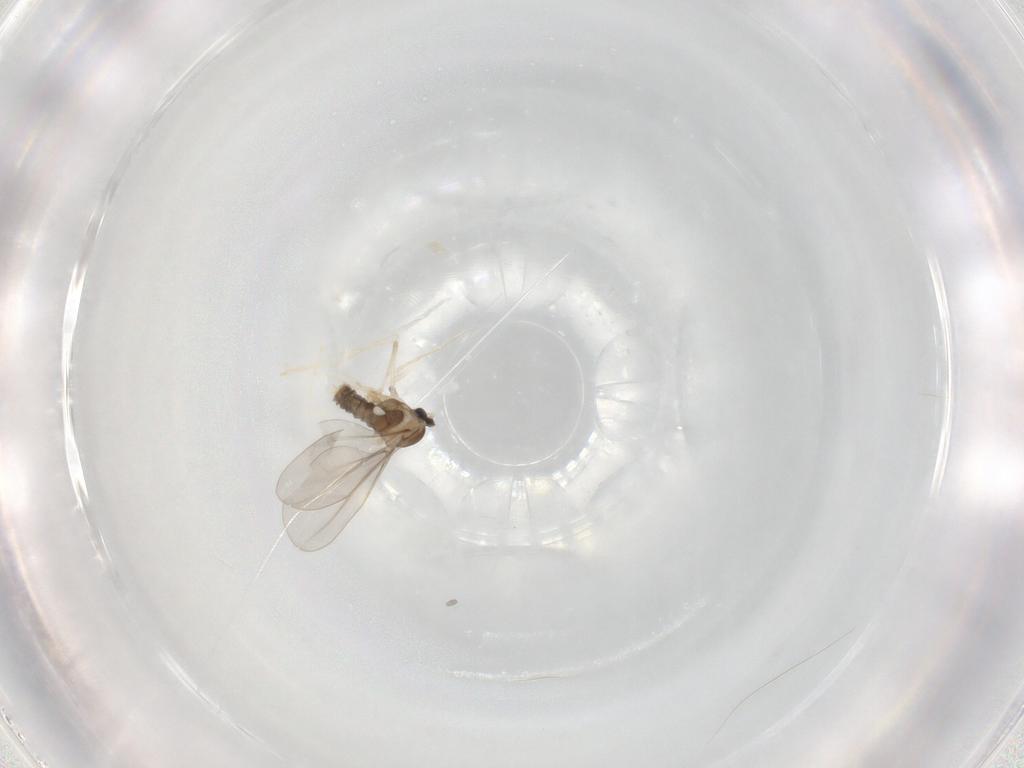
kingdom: Animalia
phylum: Arthropoda
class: Insecta
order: Diptera
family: Cecidomyiidae
